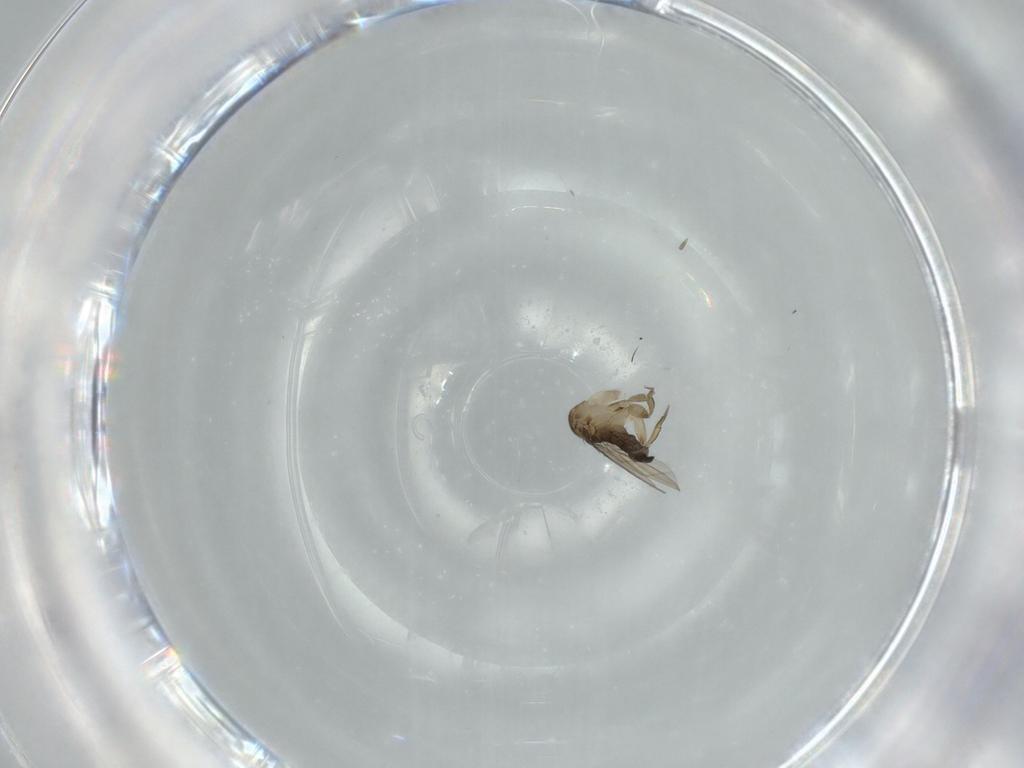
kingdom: Animalia
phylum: Arthropoda
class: Insecta
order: Diptera
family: Phoridae
